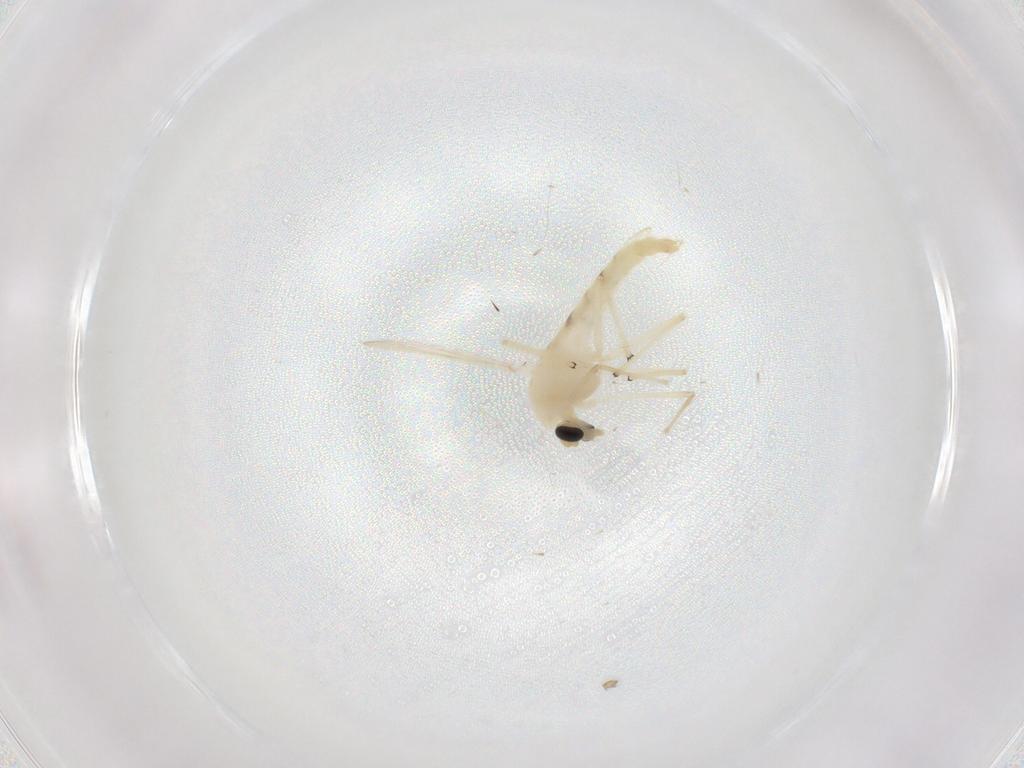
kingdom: Animalia
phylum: Arthropoda
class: Insecta
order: Diptera
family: Chironomidae
